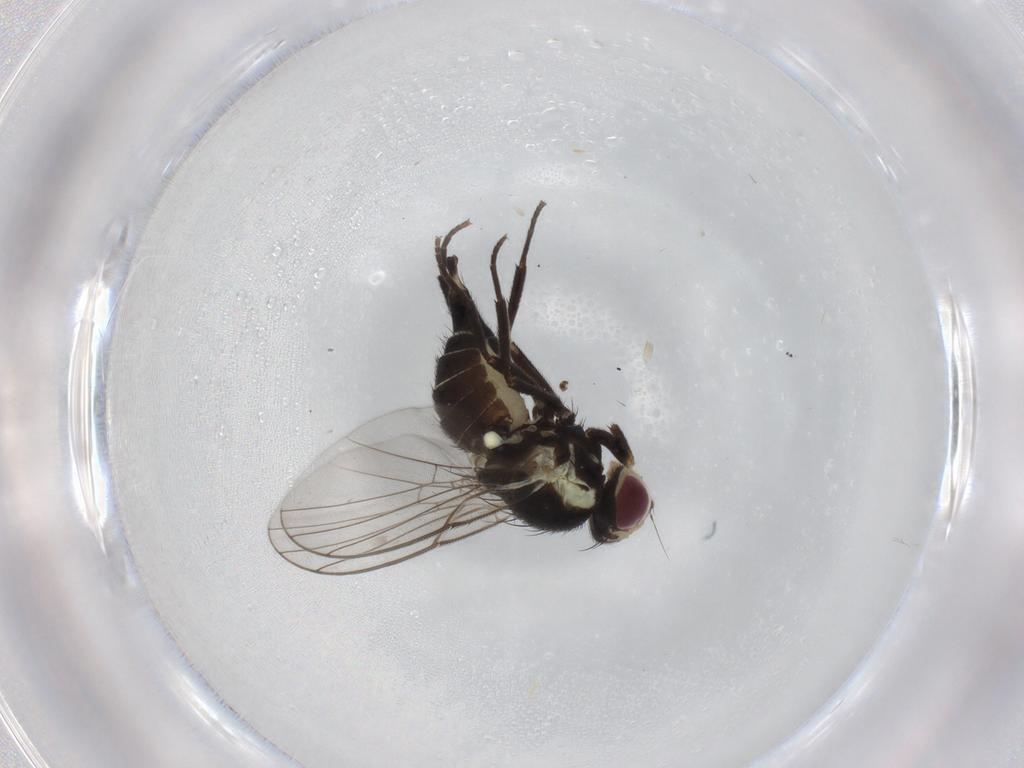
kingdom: Animalia
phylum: Arthropoda
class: Insecta
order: Diptera
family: Agromyzidae
